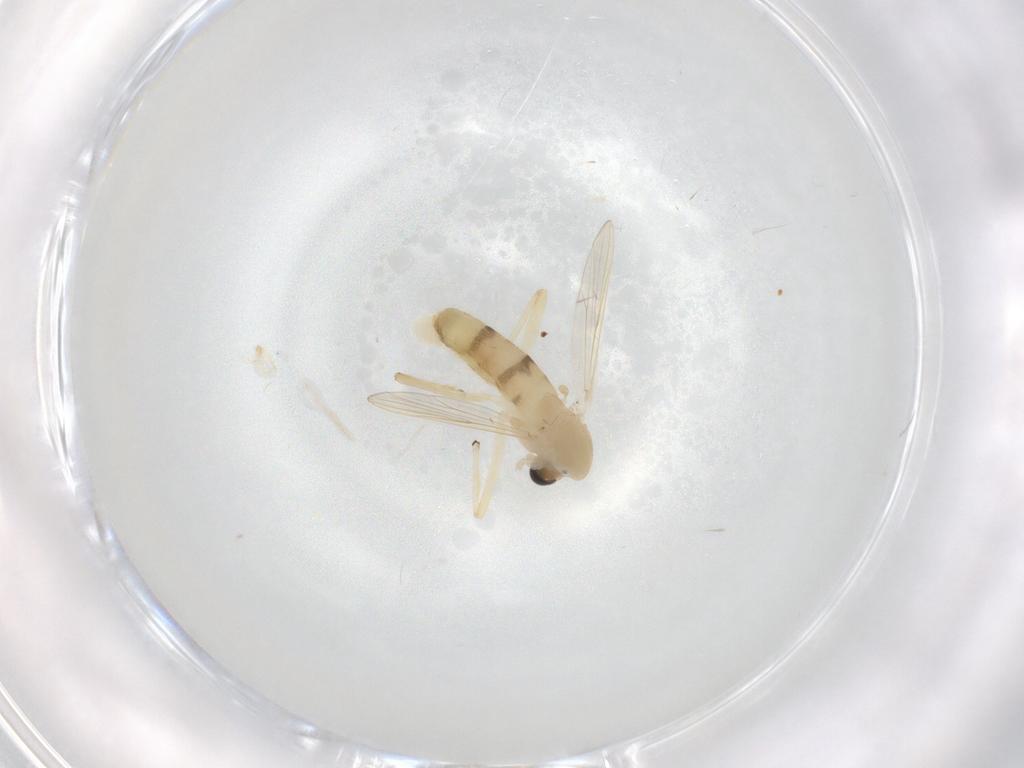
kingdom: Animalia
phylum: Arthropoda
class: Insecta
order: Diptera
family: Chironomidae
